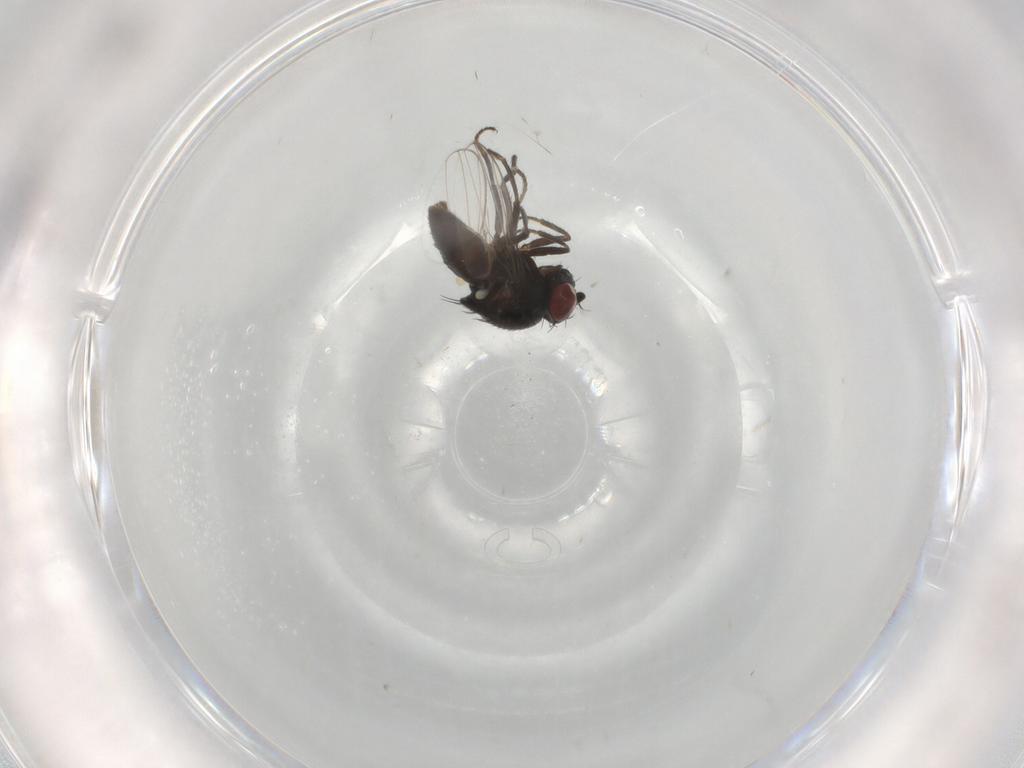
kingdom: Animalia
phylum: Arthropoda
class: Insecta
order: Diptera
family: Ephydridae
